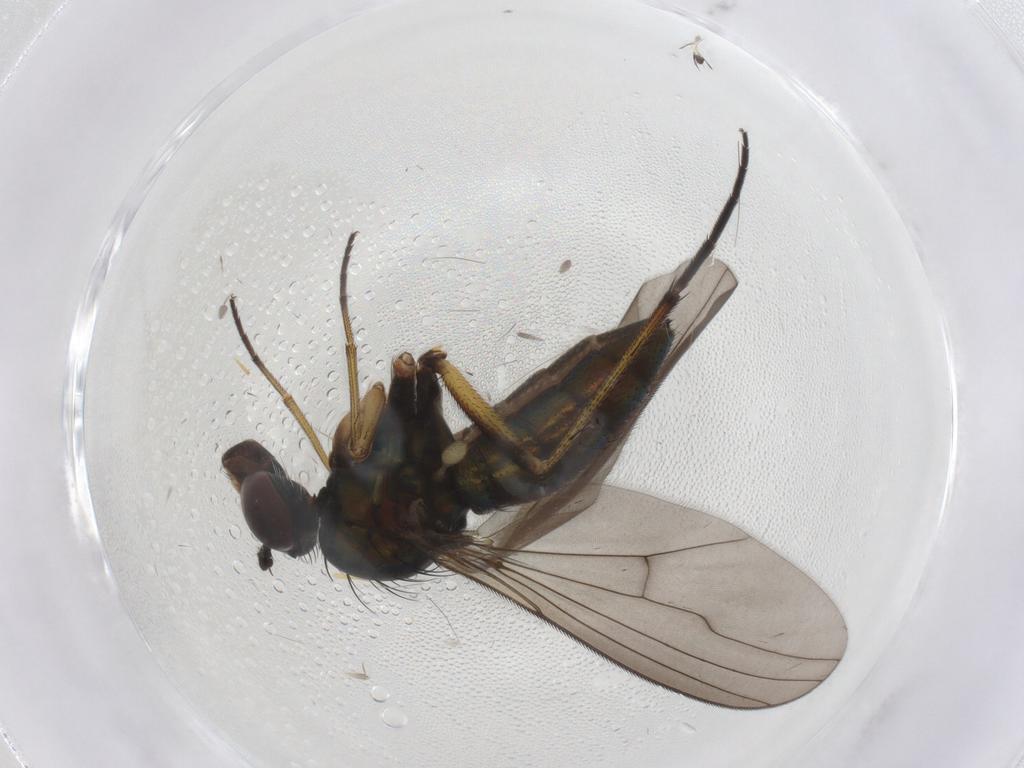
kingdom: Animalia
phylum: Arthropoda
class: Insecta
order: Diptera
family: Dolichopodidae
